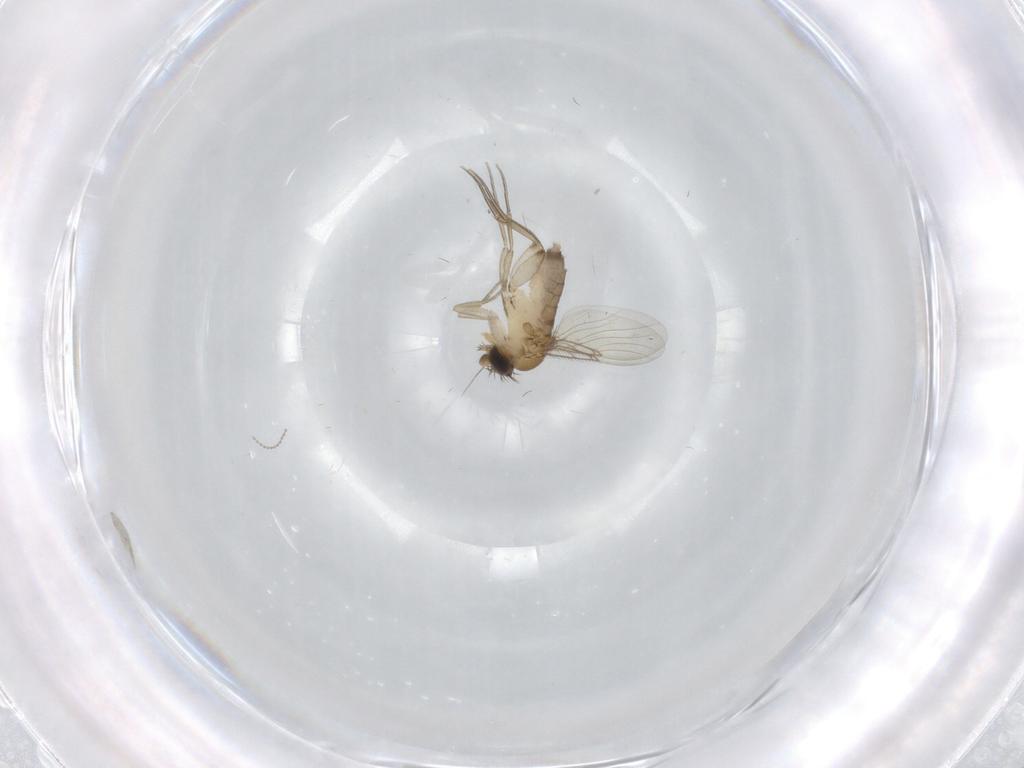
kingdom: Animalia
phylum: Arthropoda
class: Insecta
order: Diptera
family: Phoridae
